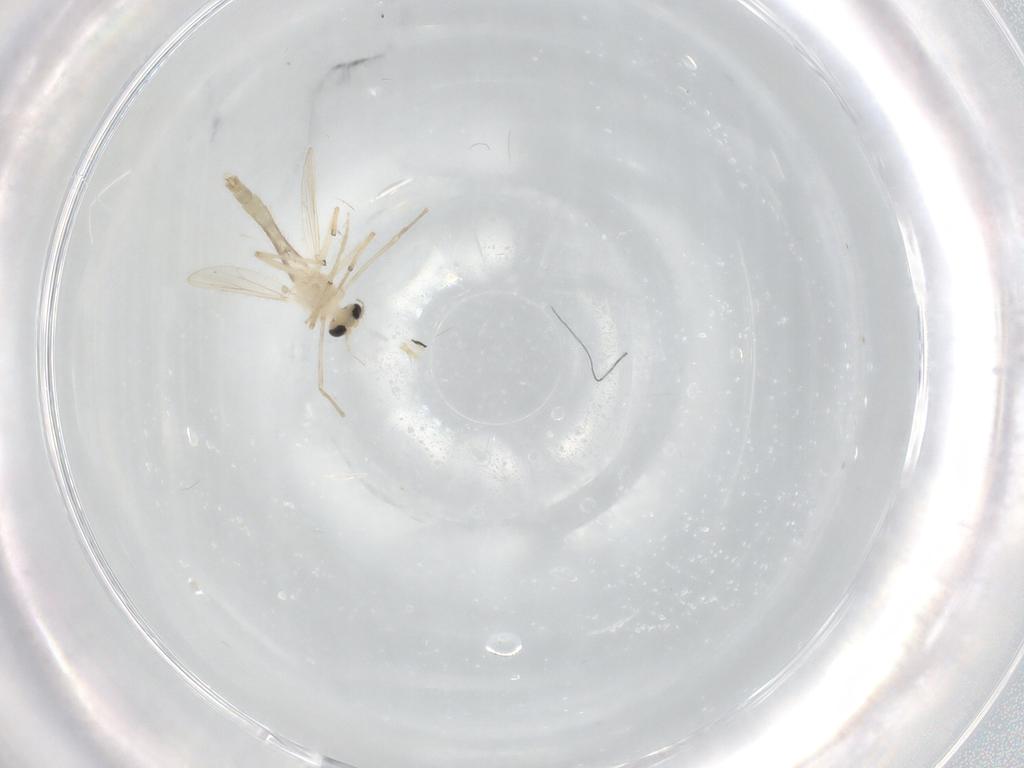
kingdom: Animalia
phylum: Arthropoda
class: Insecta
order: Diptera
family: Chironomidae
